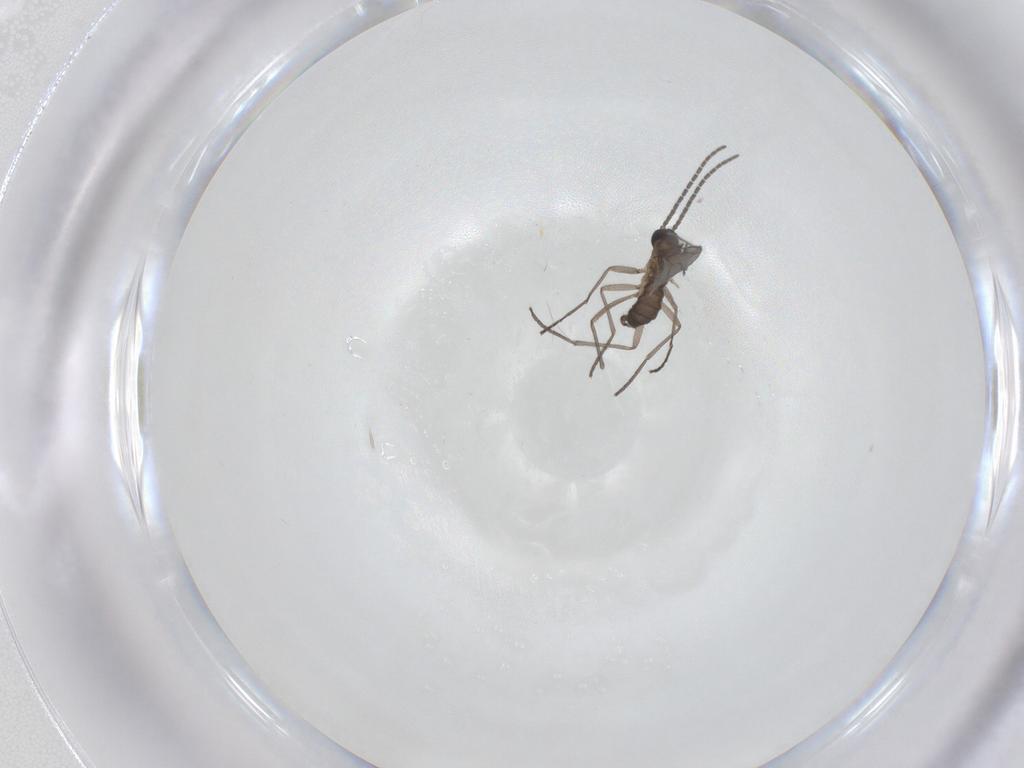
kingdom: Animalia
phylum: Arthropoda
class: Insecta
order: Diptera
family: Sciaridae
